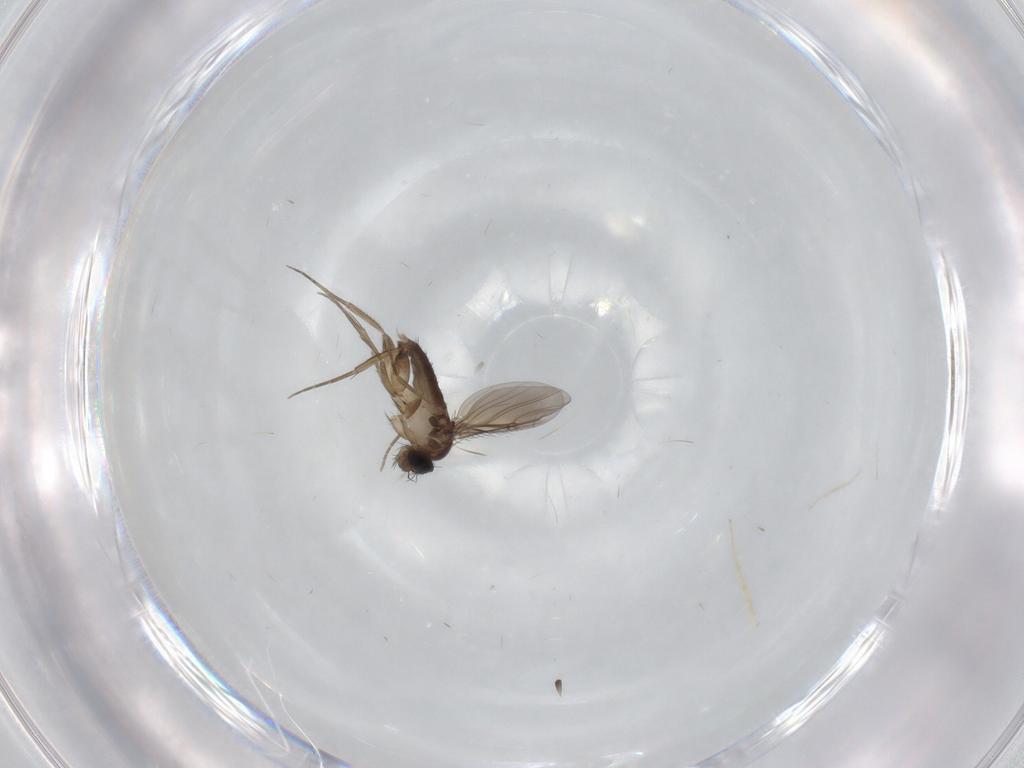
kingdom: Animalia
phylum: Arthropoda
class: Insecta
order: Diptera
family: Phoridae
